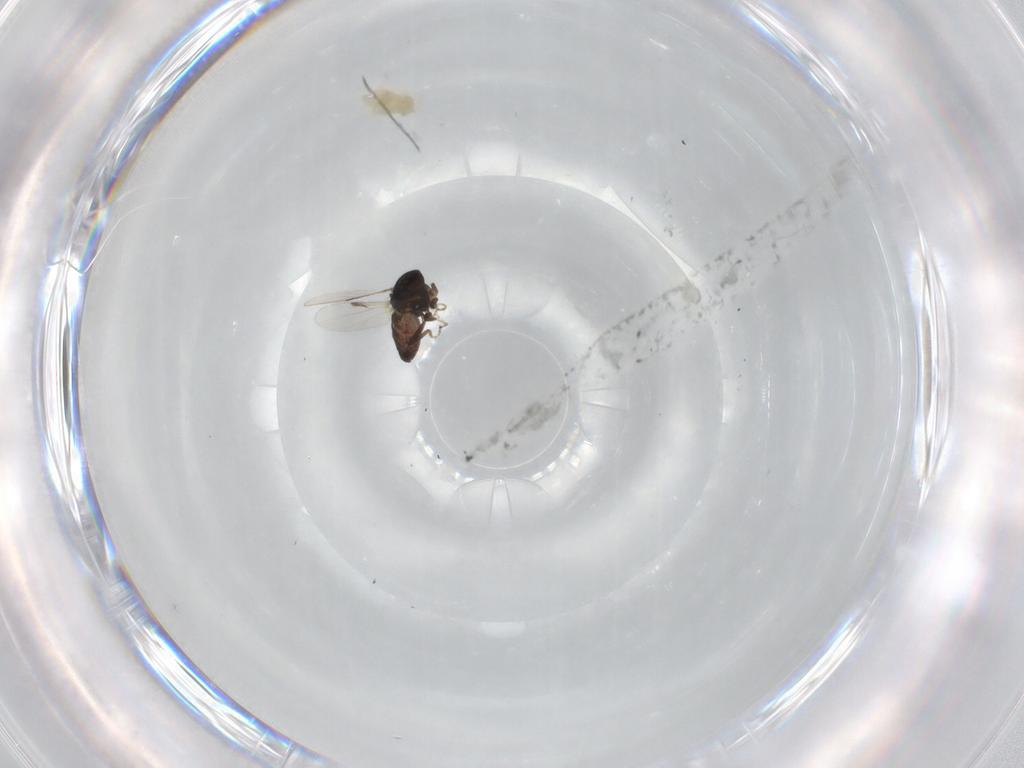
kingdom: Animalia
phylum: Arthropoda
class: Insecta
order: Diptera
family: Ceratopogonidae
